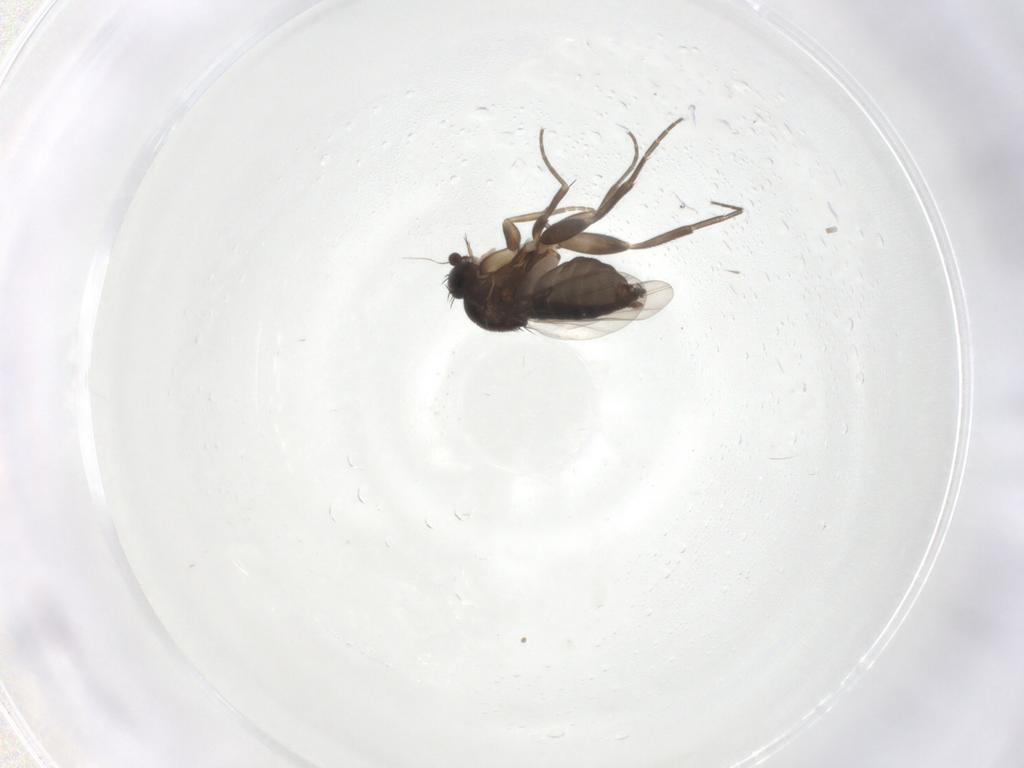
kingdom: Animalia
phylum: Arthropoda
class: Insecta
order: Diptera
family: Phoridae
